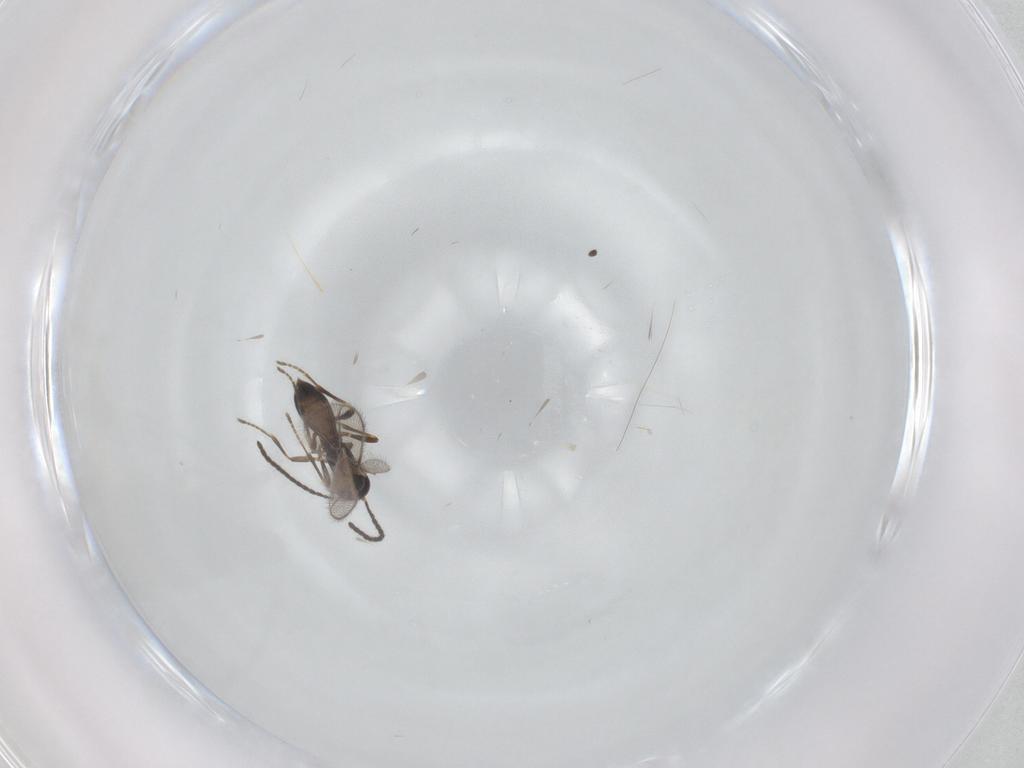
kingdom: Animalia
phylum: Arthropoda
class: Insecta
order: Hymenoptera
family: Braconidae
